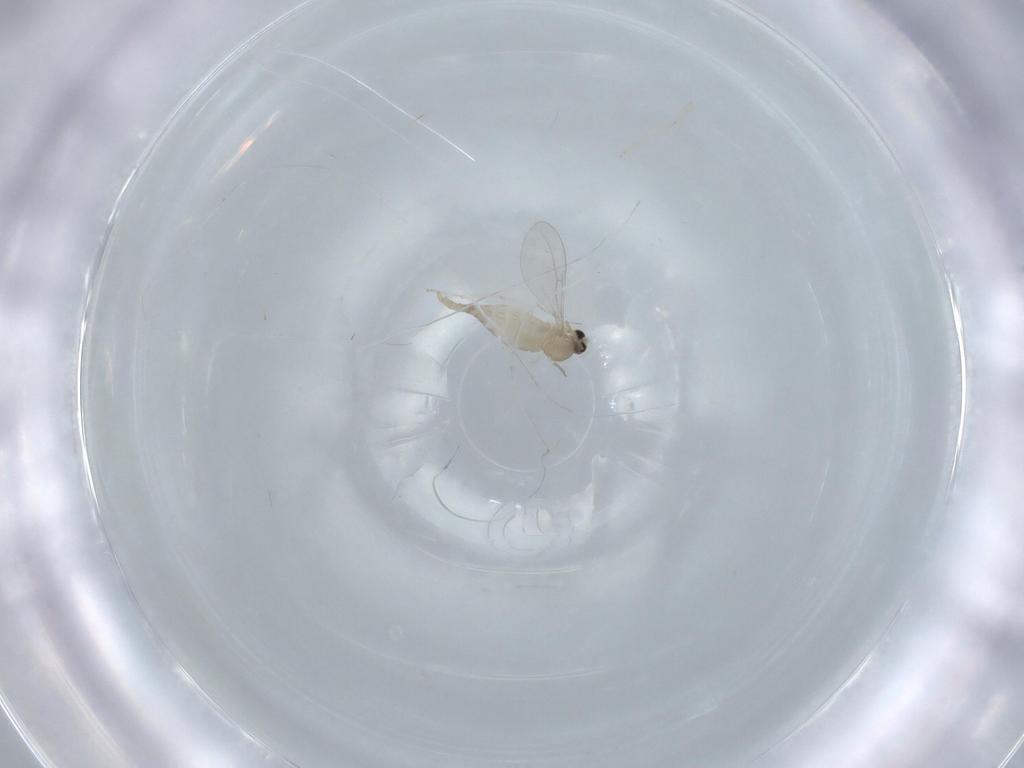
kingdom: Animalia
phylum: Arthropoda
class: Insecta
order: Diptera
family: Cecidomyiidae
